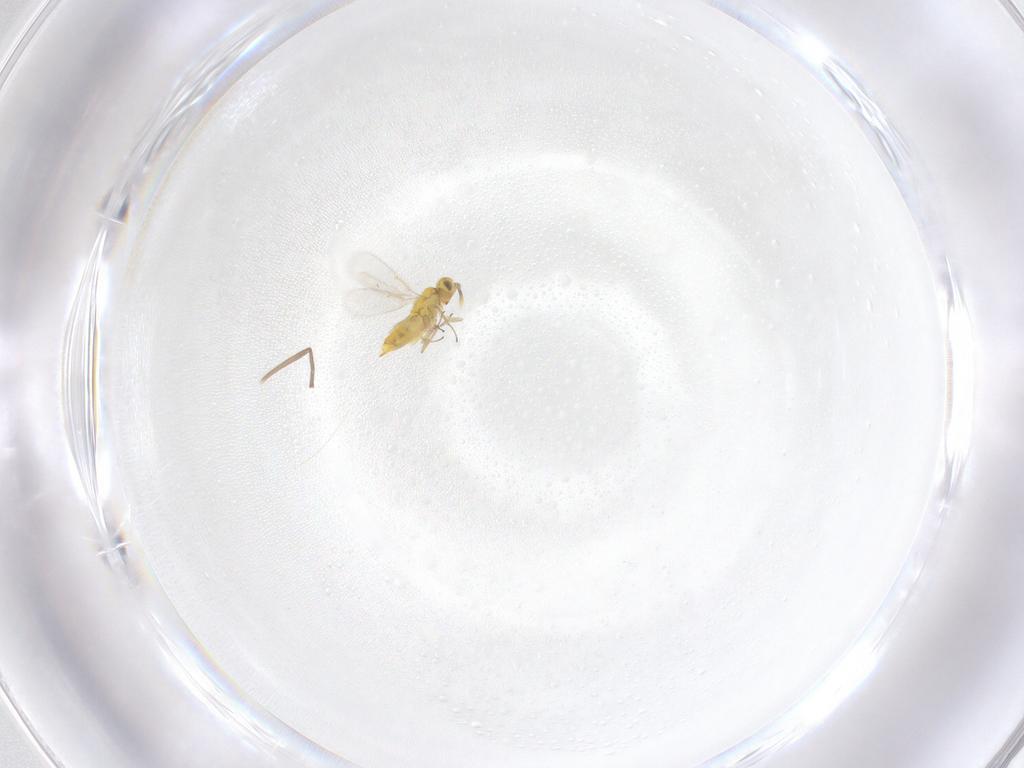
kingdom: Animalia
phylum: Arthropoda
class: Insecta
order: Hymenoptera
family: Aphelinidae
